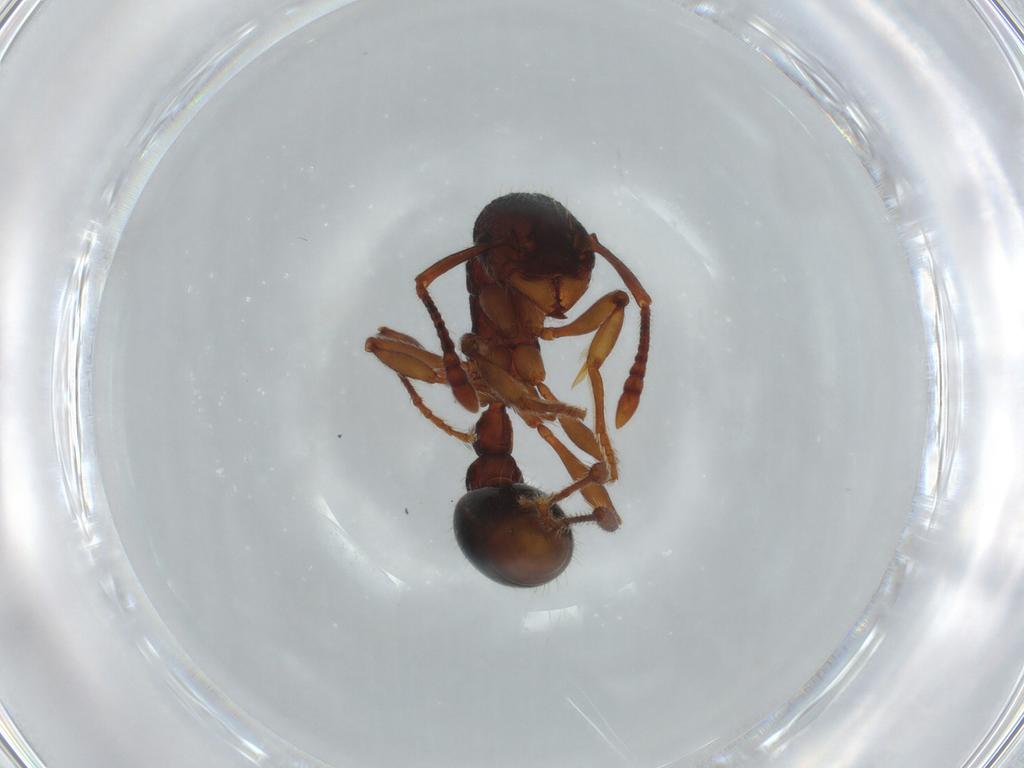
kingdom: Animalia
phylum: Arthropoda
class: Insecta
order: Hymenoptera
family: Formicidae
